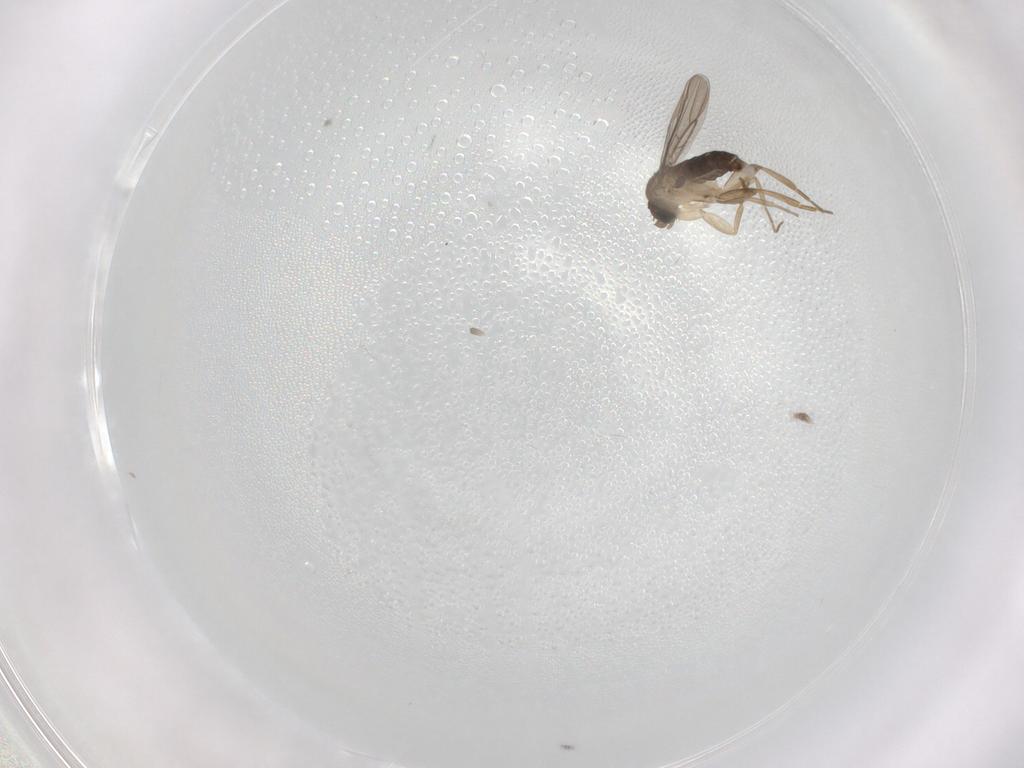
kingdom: Animalia
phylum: Arthropoda
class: Insecta
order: Diptera
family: Phoridae
